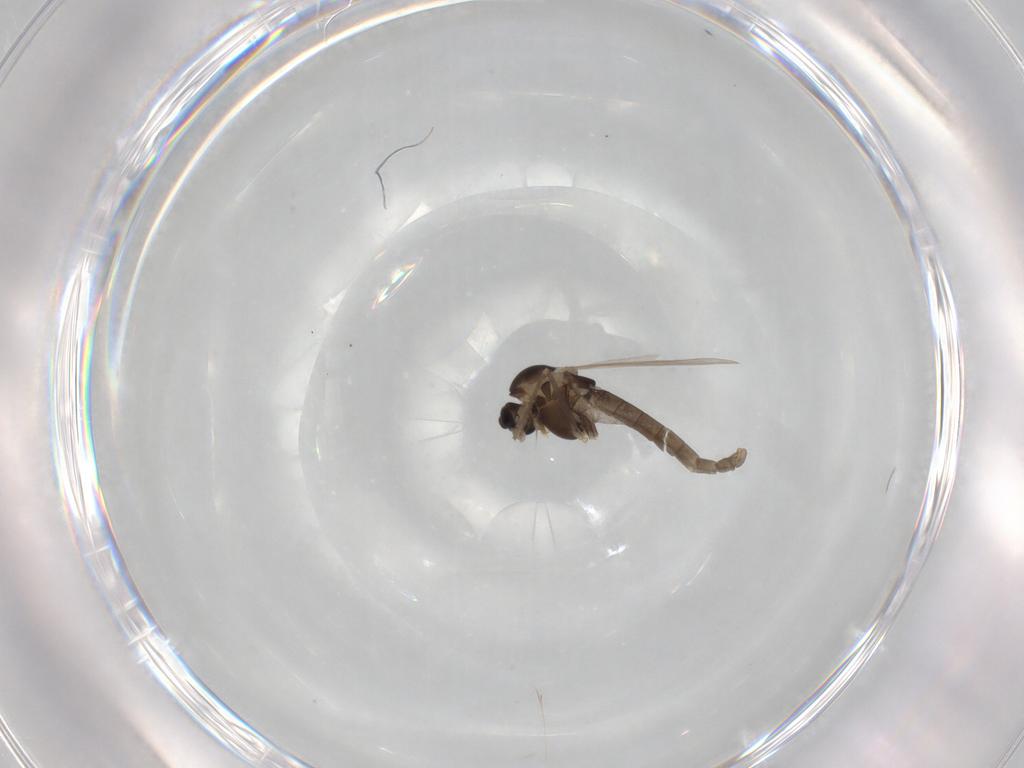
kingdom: Animalia
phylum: Arthropoda
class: Insecta
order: Diptera
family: Chironomidae
